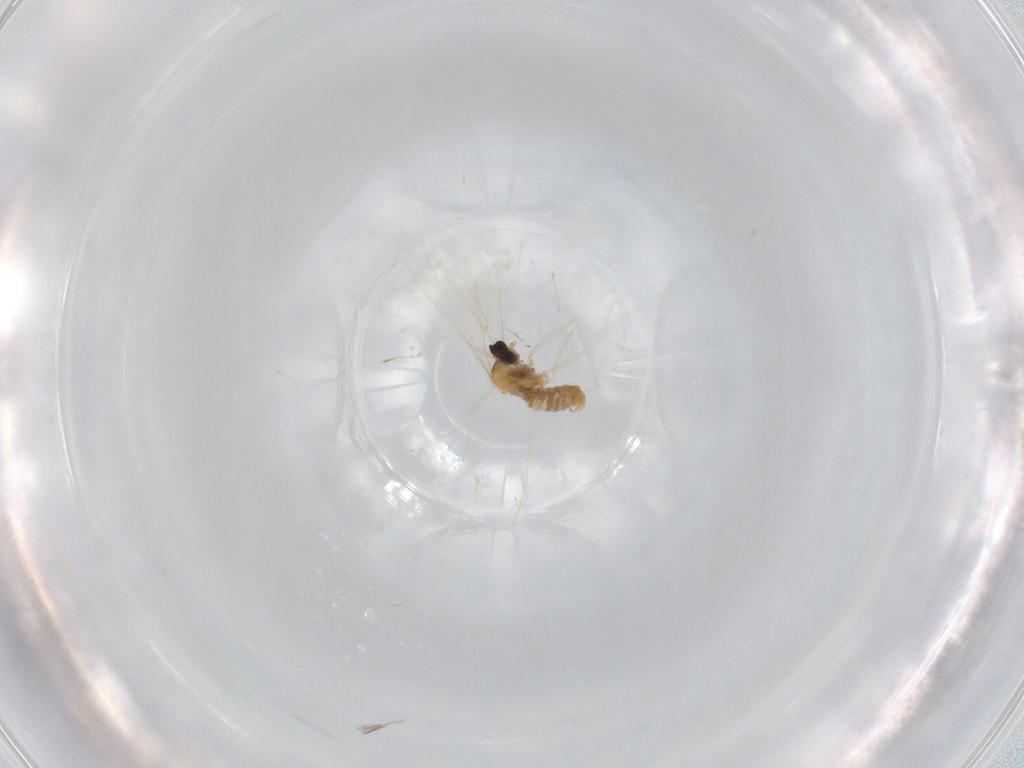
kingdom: Animalia
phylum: Arthropoda
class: Insecta
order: Diptera
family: Cecidomyiidae
